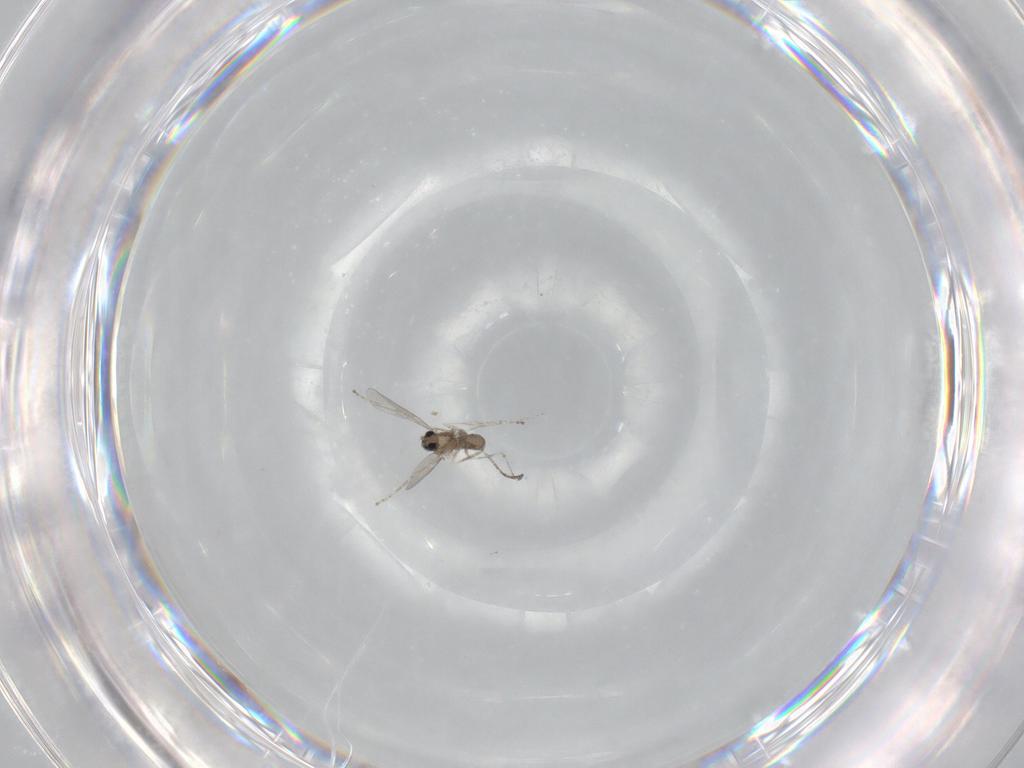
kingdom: Animalia
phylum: Arthropoda
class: Insecta
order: Diptera
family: Cecidomyiidae
